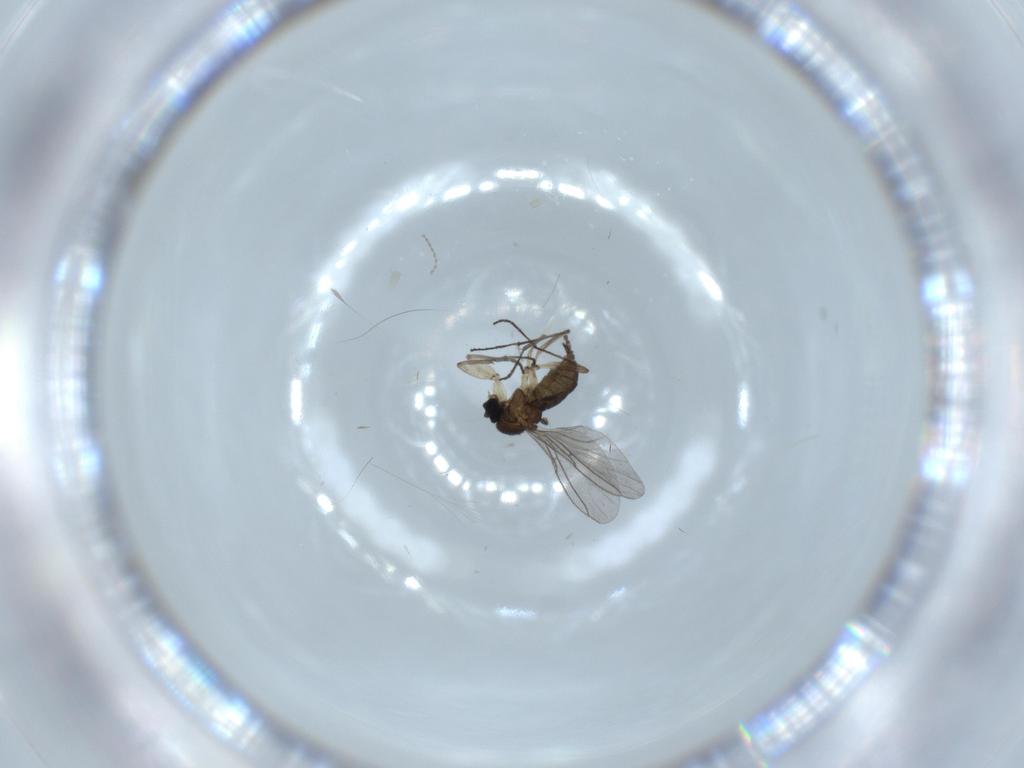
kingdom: Animalia
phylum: Arthropoda
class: Insecta
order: Diptera
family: Sciaridae
